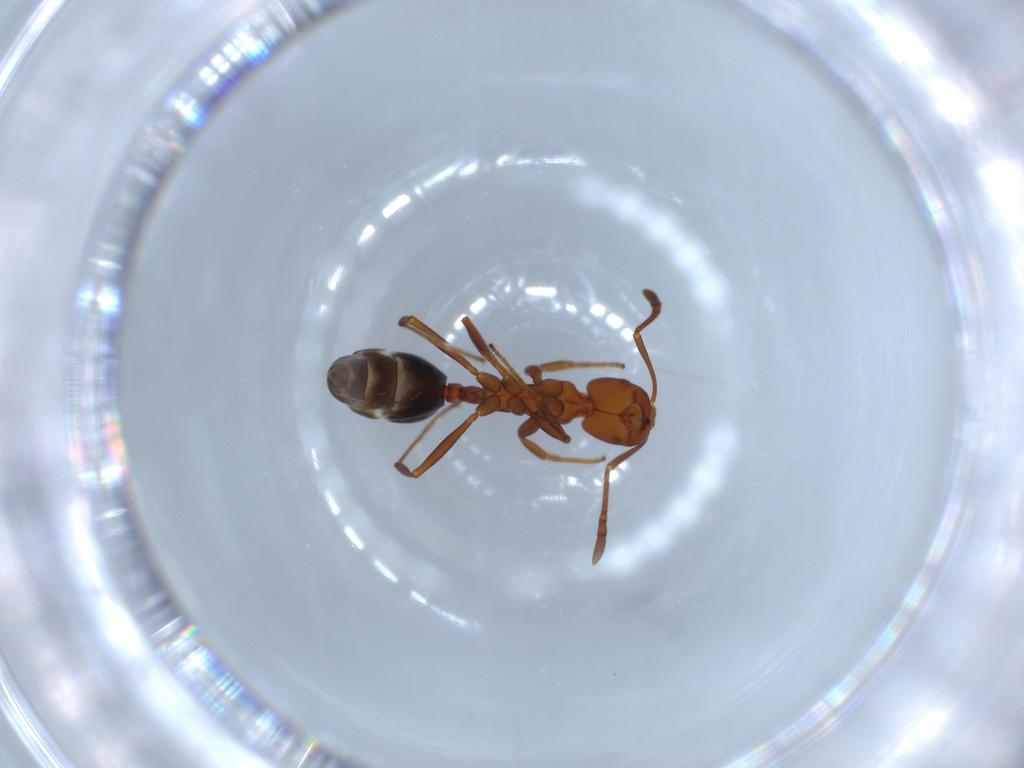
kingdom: Animalia
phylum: Arthropoda
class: Insecta
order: Hymenoptera
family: Formicidae
